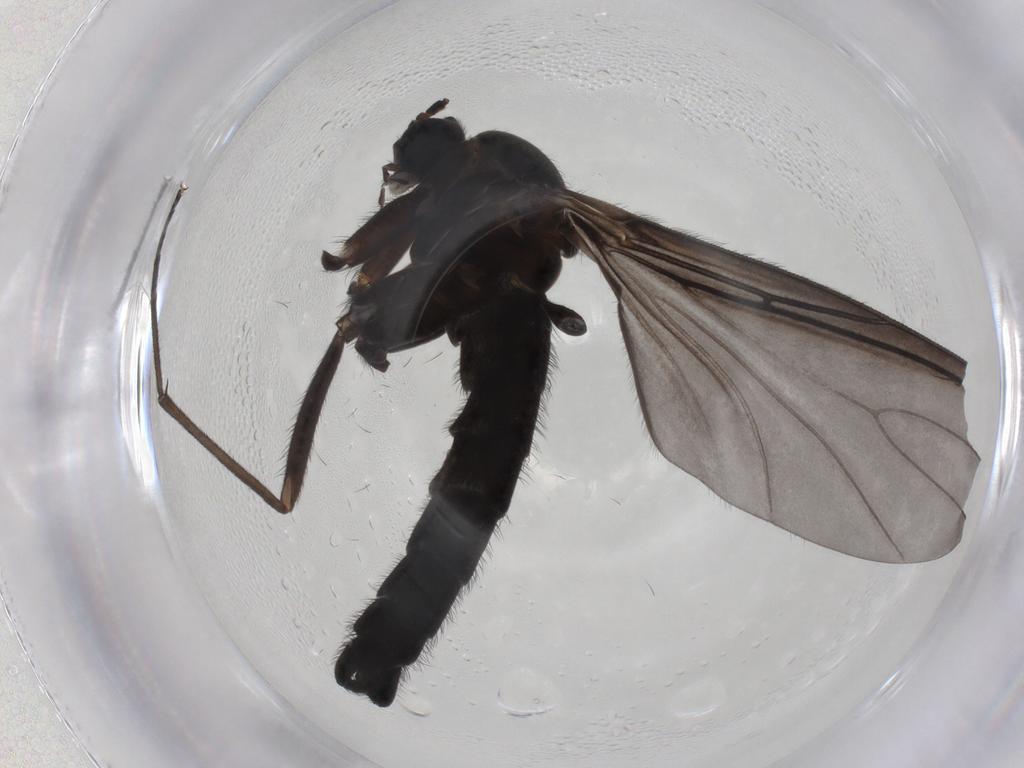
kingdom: Animalia
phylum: Arthropoda
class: Insecta
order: Diptera
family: Sciaridae
